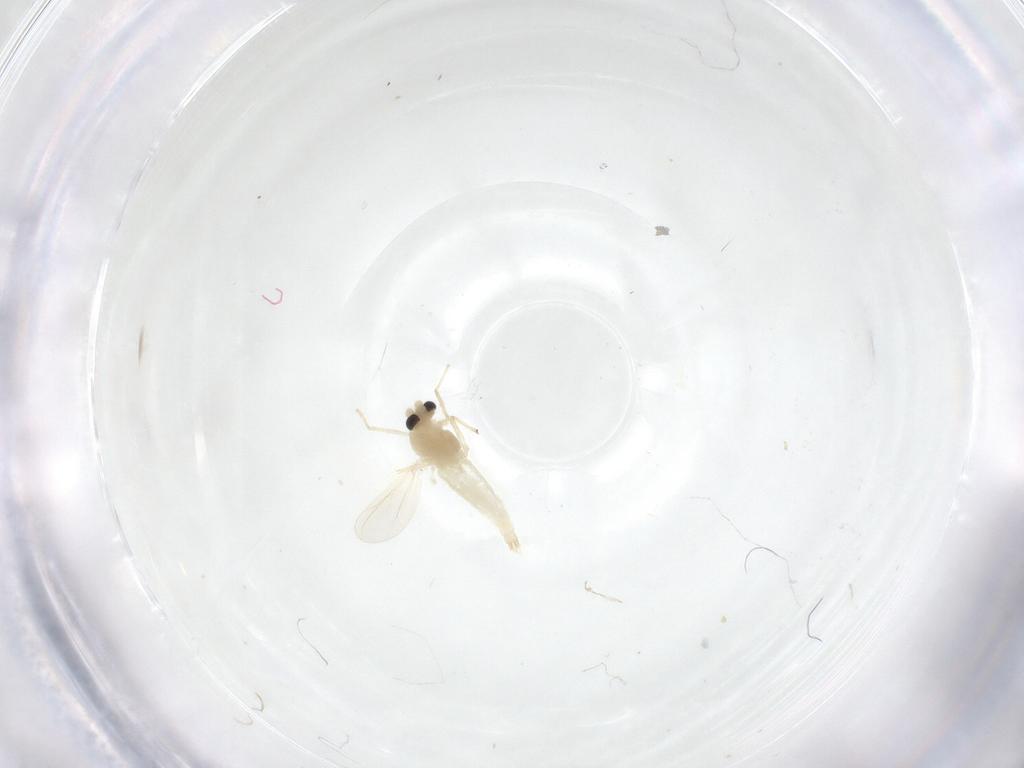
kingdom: Animalia
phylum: Arthropoda
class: Insecta
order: Diptera
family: Chironomidae
